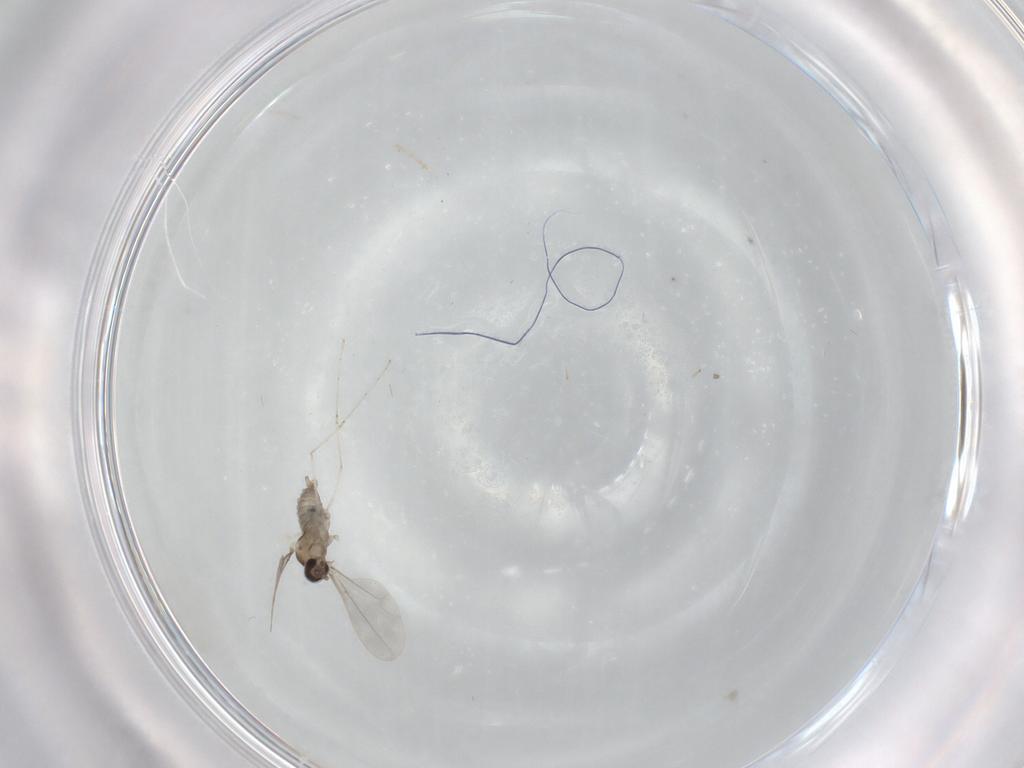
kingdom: Animalia
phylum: Arthropoda
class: Insecta
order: Diptera
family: Cecidomyiidae
